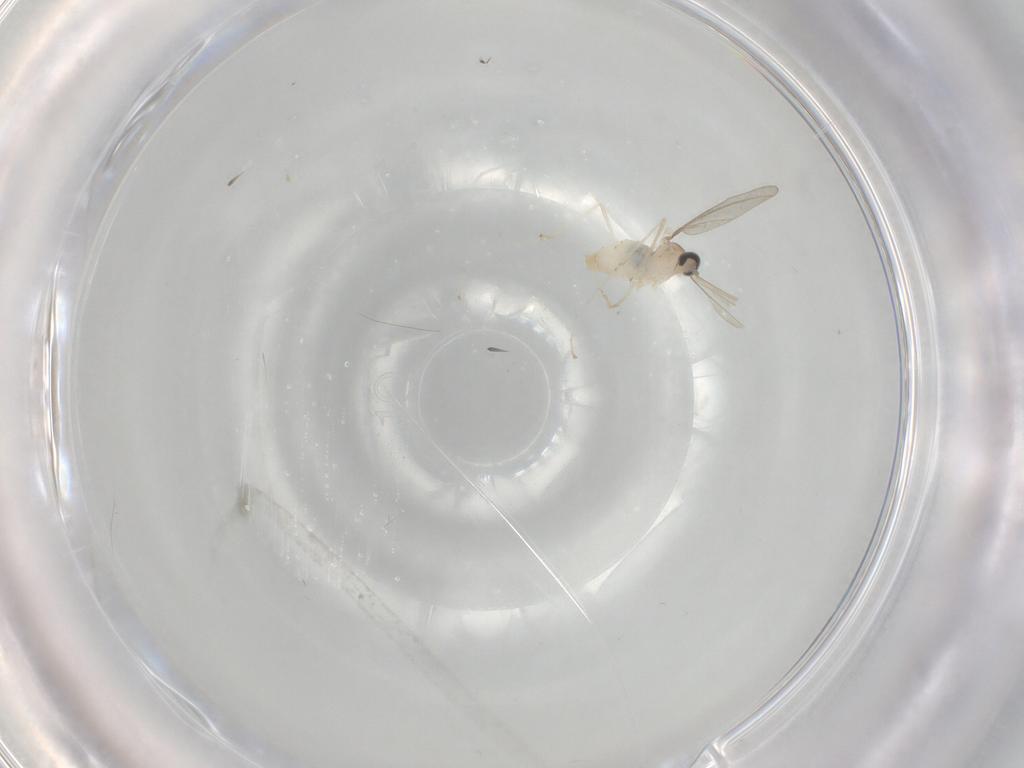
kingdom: Animalia
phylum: Arthropoda
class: Insecta
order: Diptera
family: Cecidomyiidae
